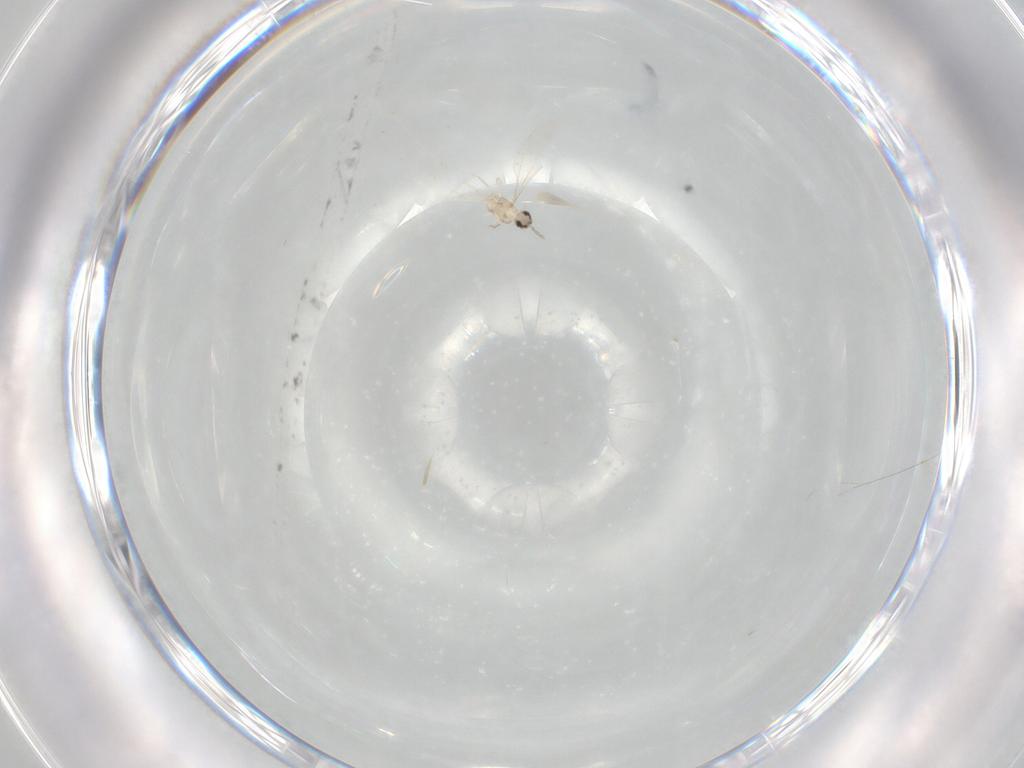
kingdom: Animalia
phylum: Arthropoda
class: Insecta
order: Diptera
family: Cecidomyiidae
